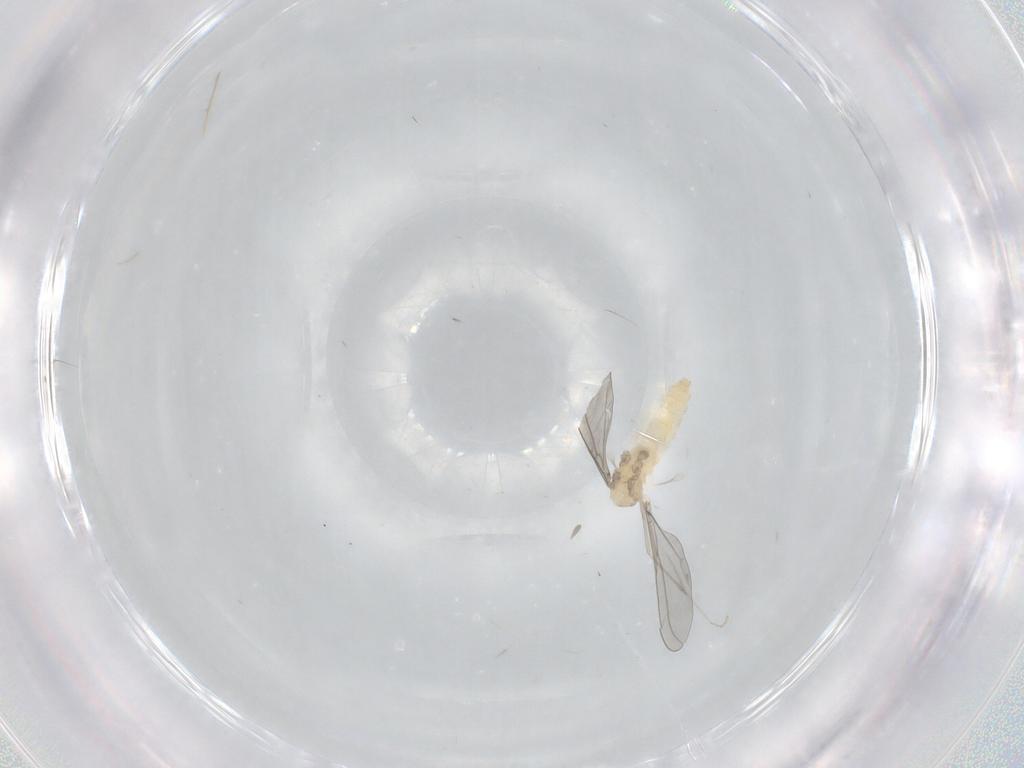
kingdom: Animalia
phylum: Arthropoda
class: Insecta
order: Diptera
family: Cecidomyiidae
